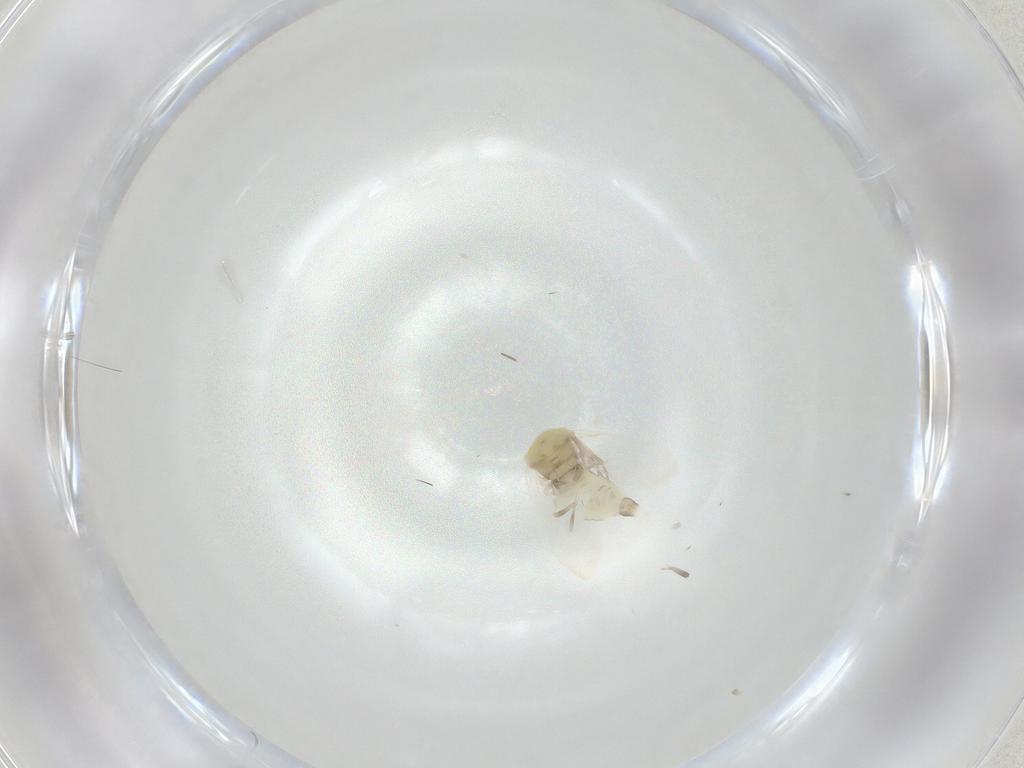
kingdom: Animalia
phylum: Arthropoda
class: Insecta
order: Hemiptera
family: Aleyrodidae
